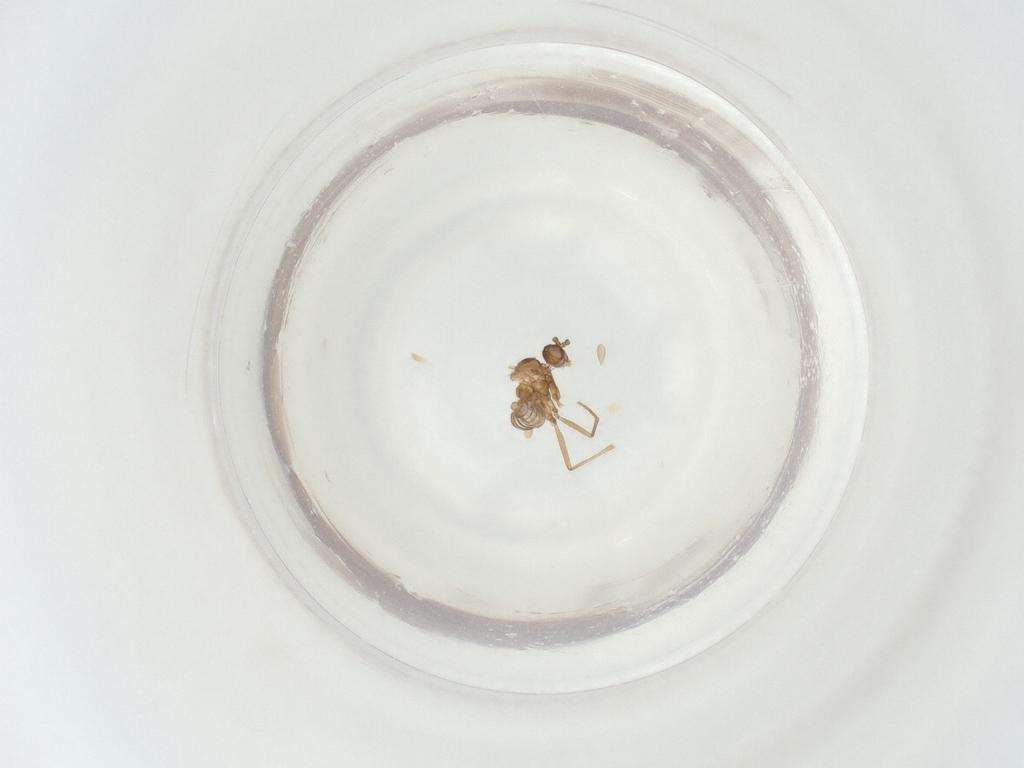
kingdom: Animalia
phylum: Arthropoda
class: Insecta
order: Diptera
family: Sciaridae
